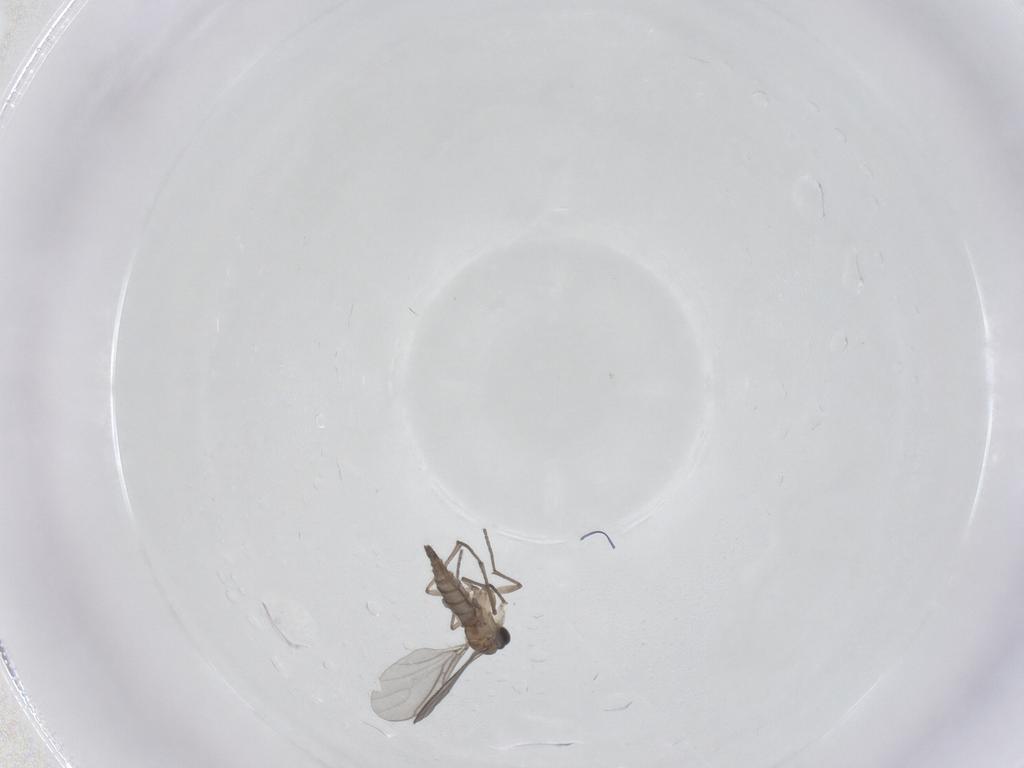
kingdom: Animalia
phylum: Arthropoda
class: Insecta
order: Diptera
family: Sciaridae
